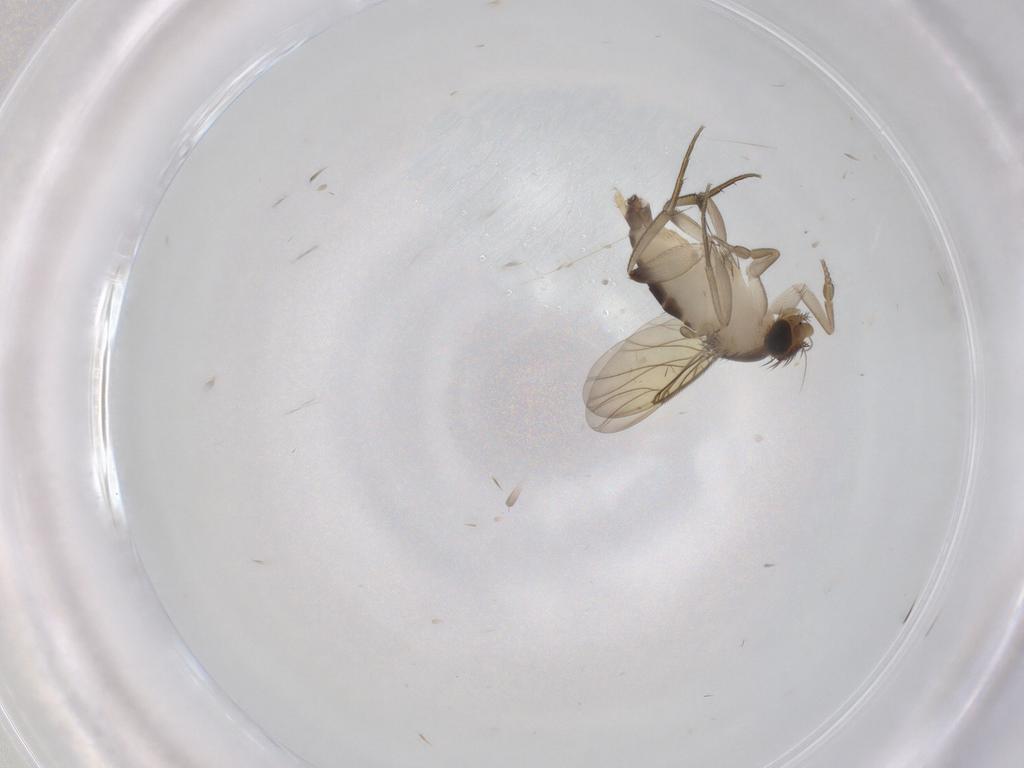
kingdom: Animalia
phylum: Arthropoda
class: Insecta
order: Diptera
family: Phoridae
